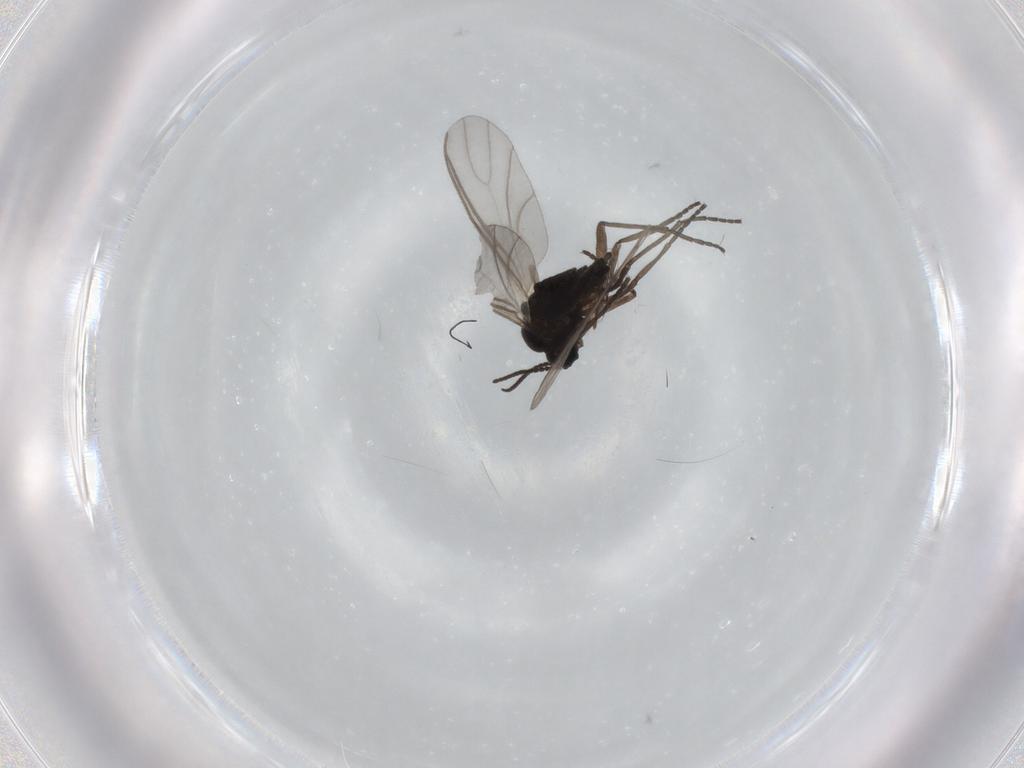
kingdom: Animalia
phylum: Arthropoda
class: Insecta
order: Diptera
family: Sciaridae
